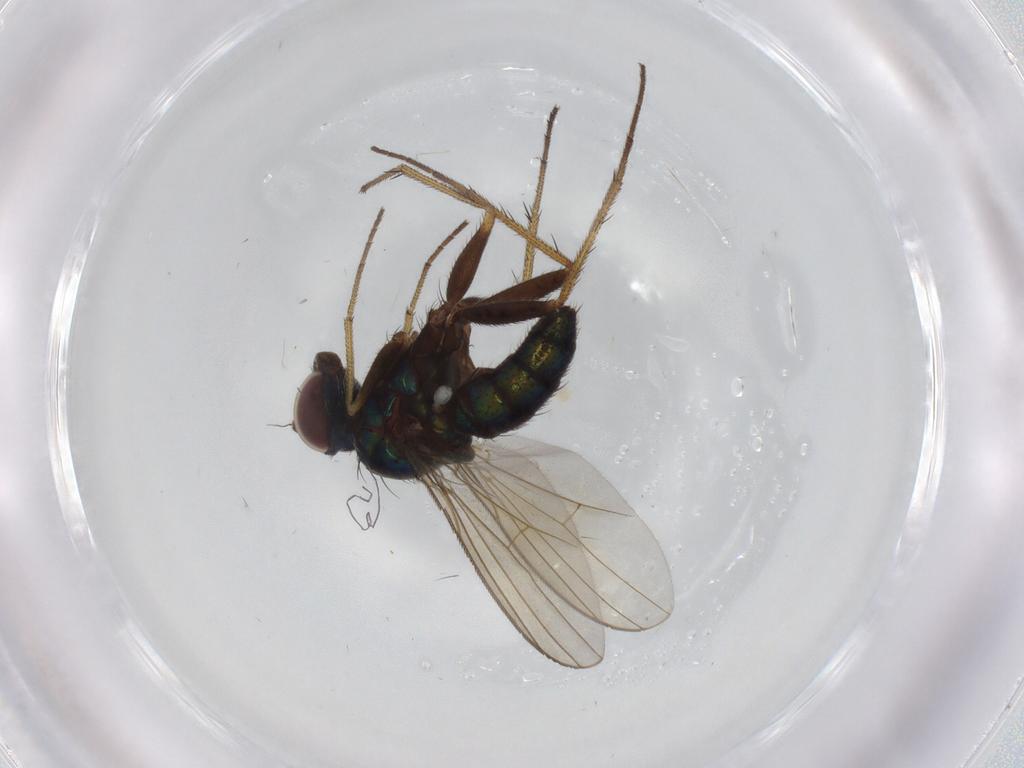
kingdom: Animalia
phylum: Arthropoda
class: Insecta
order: Diptera
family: Dolichopodidae
